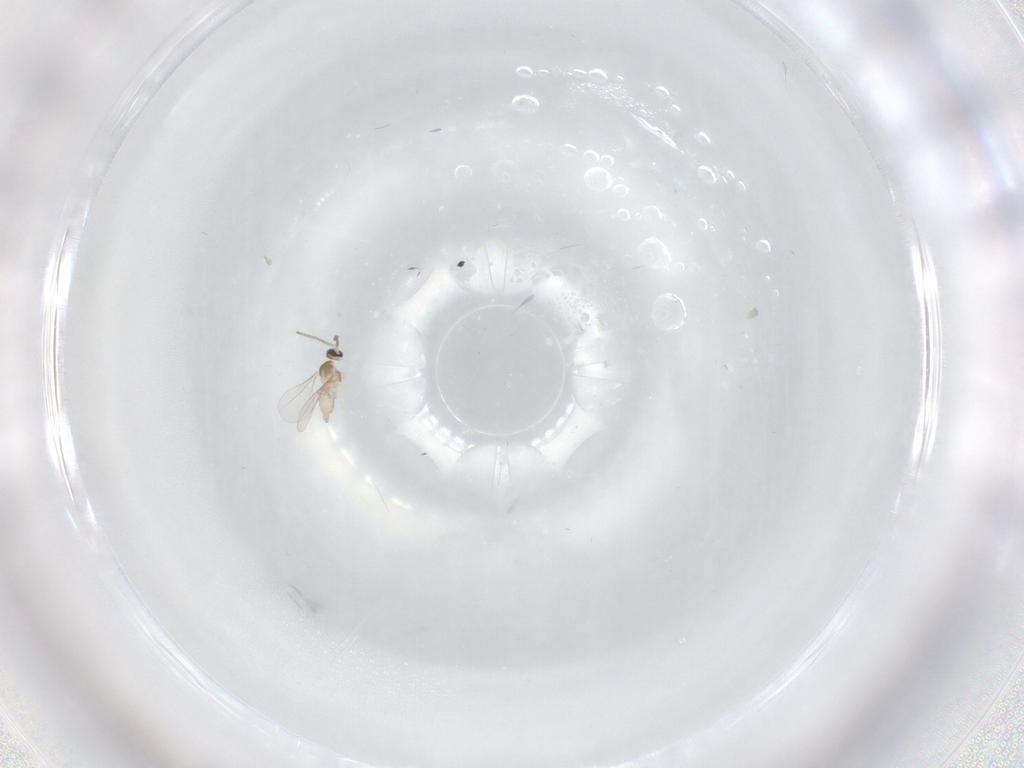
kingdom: Animalia
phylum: Arthropoda
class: Insecta
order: Diptera
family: Cecidomyiidae
